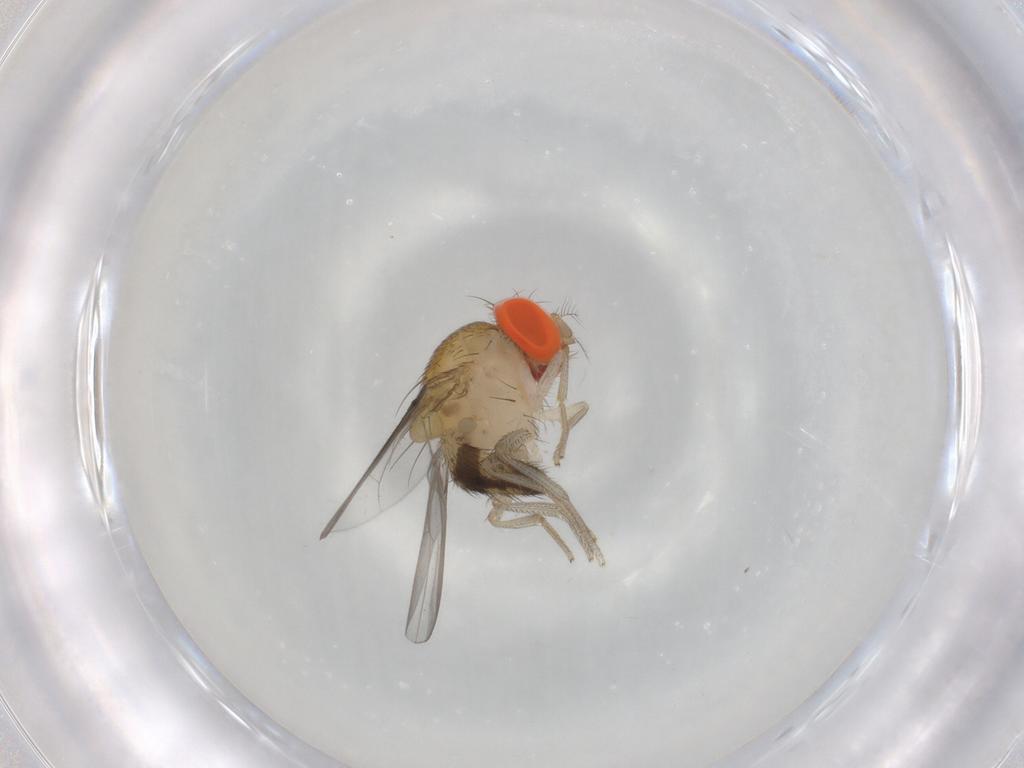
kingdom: Animalia
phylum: Arthropoda
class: Insecta
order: Diptera
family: Drosophilidae
